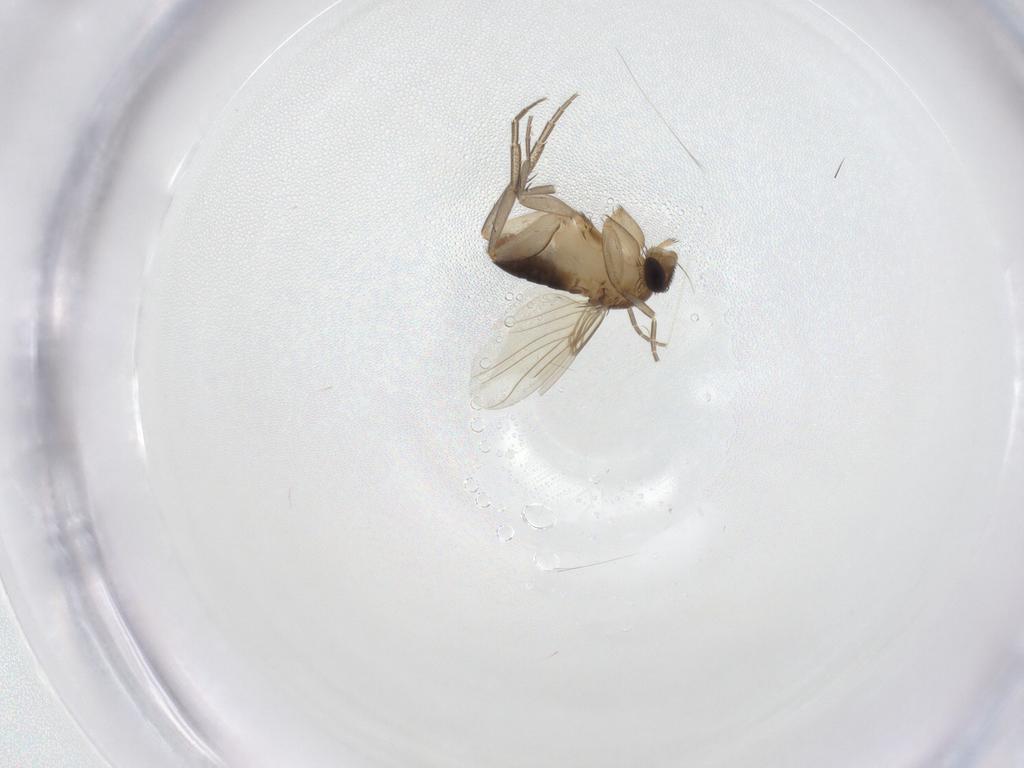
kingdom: Animalia
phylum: Arthropoda
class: Insecta
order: Diptera
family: Phoridae
